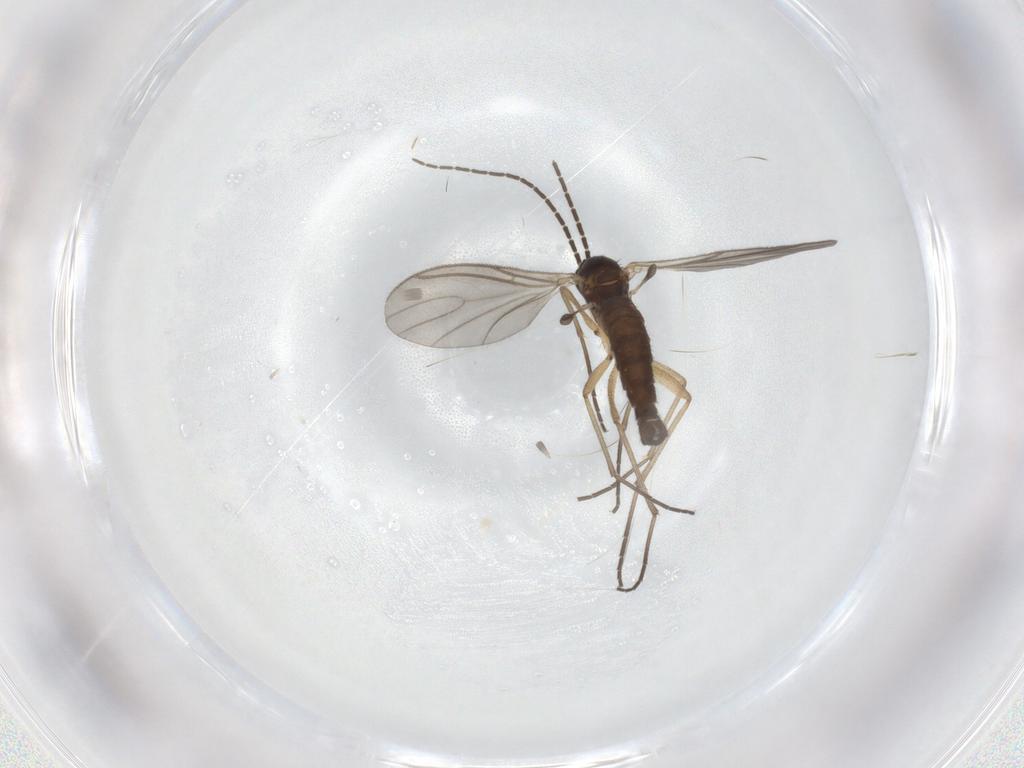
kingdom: Animalia
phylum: Arthropoda
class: Insecta
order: Diptera
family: Sciaridae
